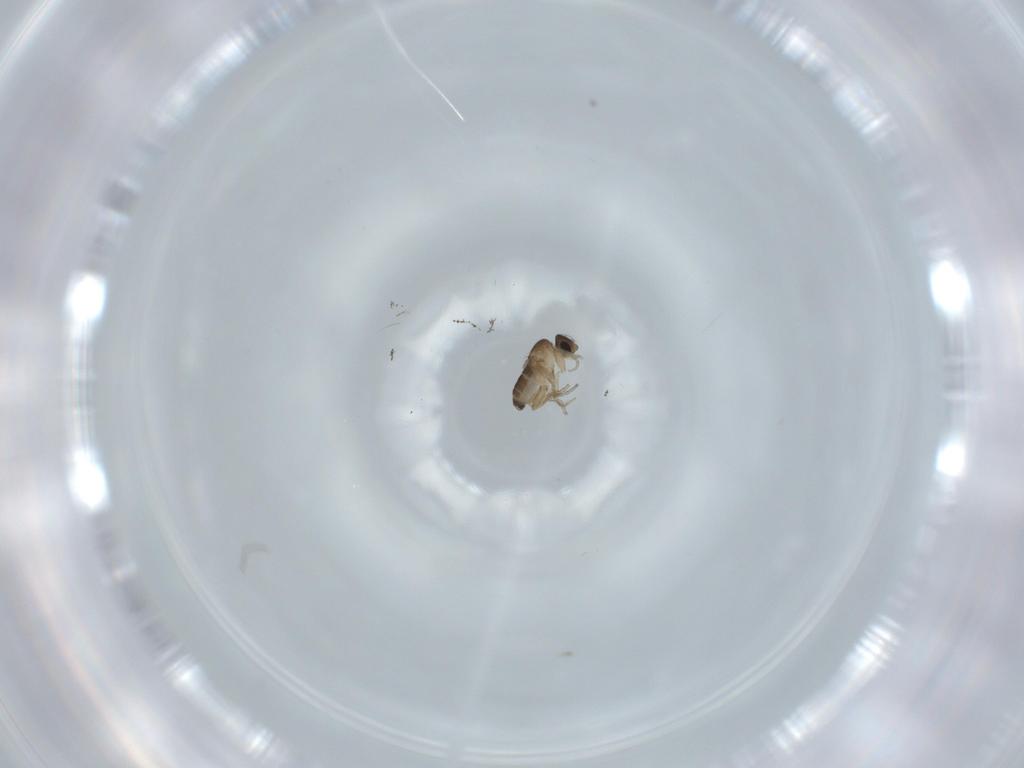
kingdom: Animalia
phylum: Arthropoda
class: Insecta
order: Diptera
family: Phoridae
